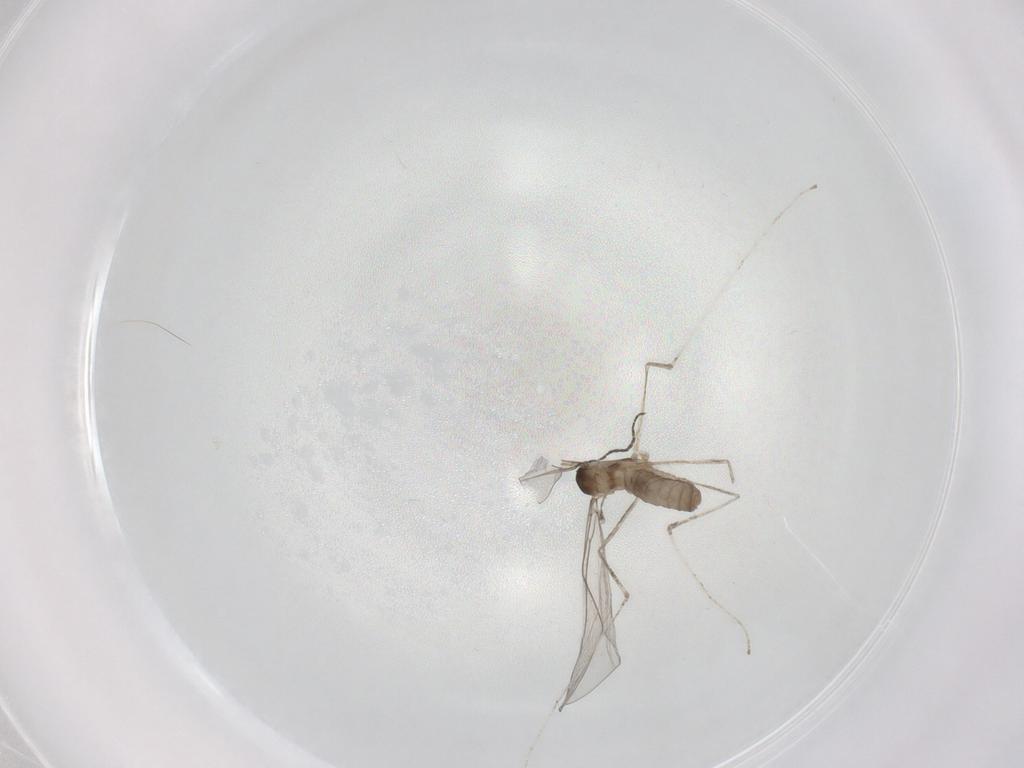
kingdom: Animalia
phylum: Arthropoda
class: Insecta
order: Diptera
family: Cecidomyiidae
